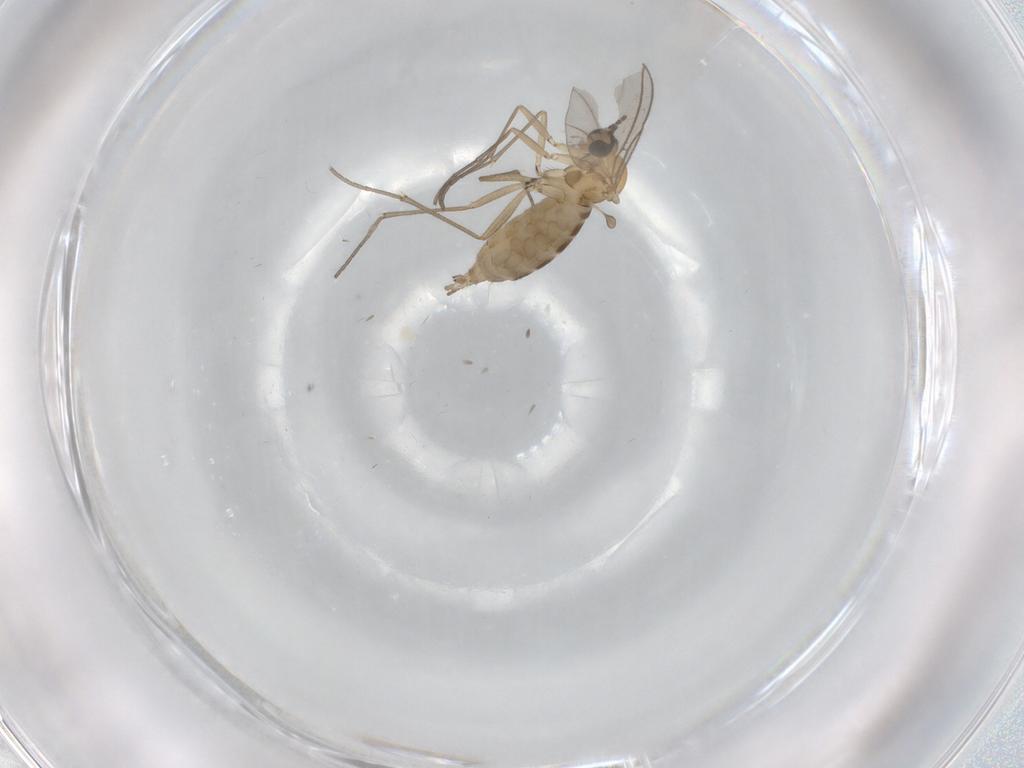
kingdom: Animalia
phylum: Arthropoda
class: Insecta
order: Diptera
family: Sciaridae
